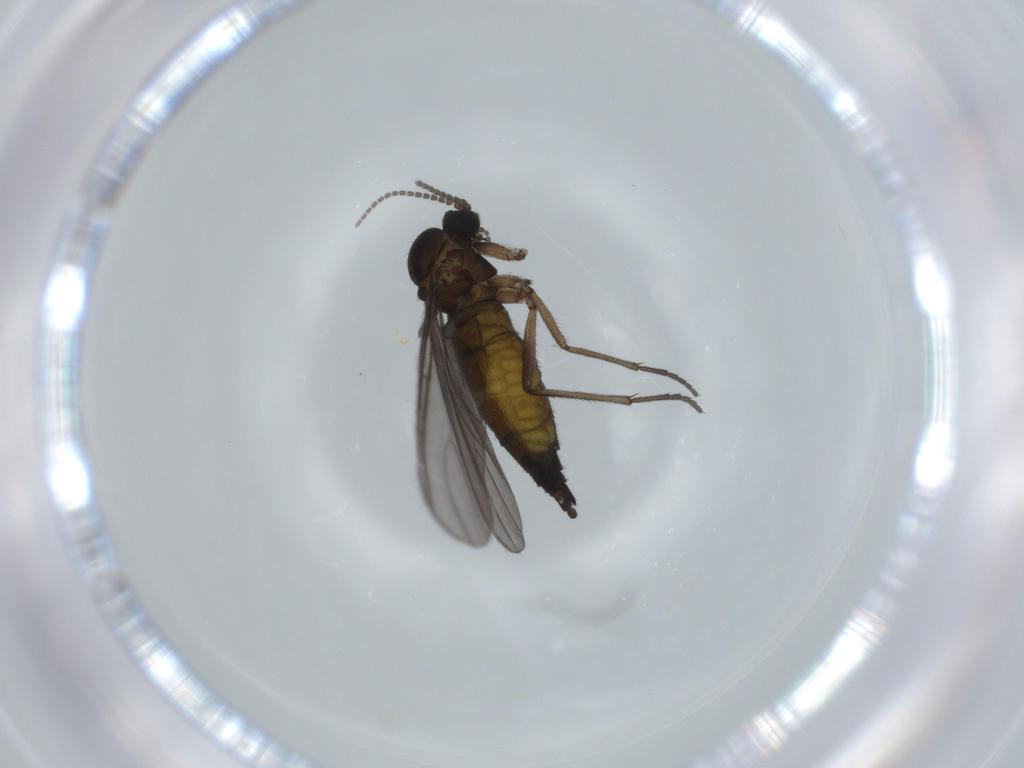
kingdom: Animalia
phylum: Arthropoda
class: Insecta
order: Diptera
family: Sciaridae
